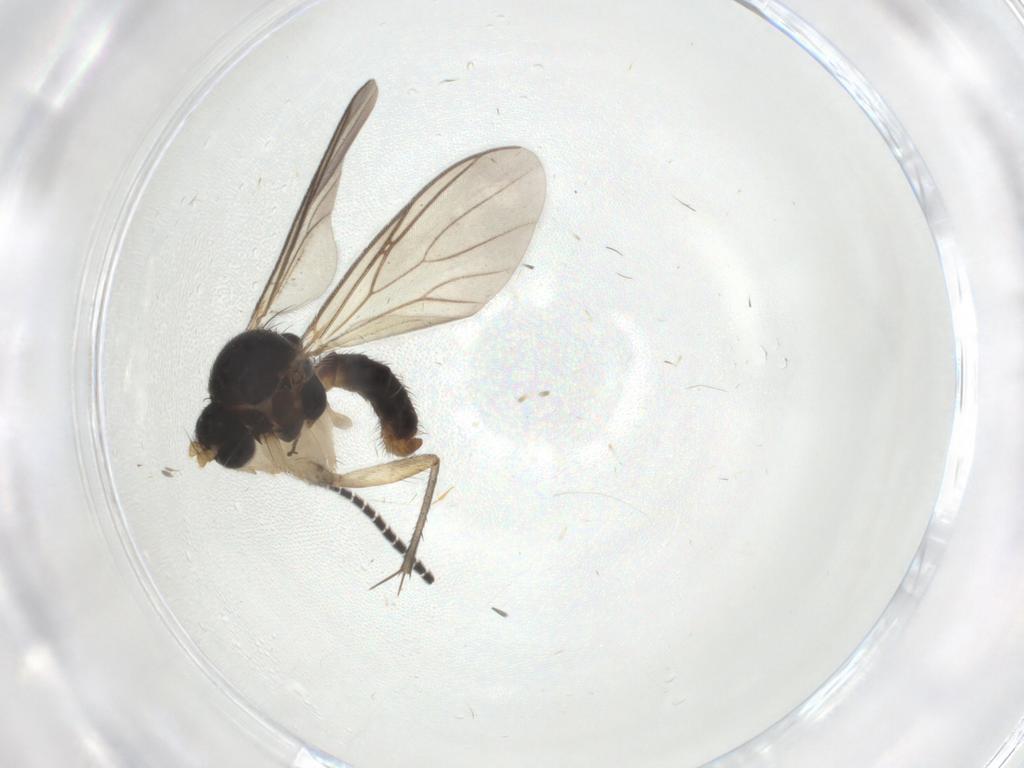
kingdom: Animalia
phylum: Arthropoda
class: Insecta
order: Diptera
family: Sciaridae
